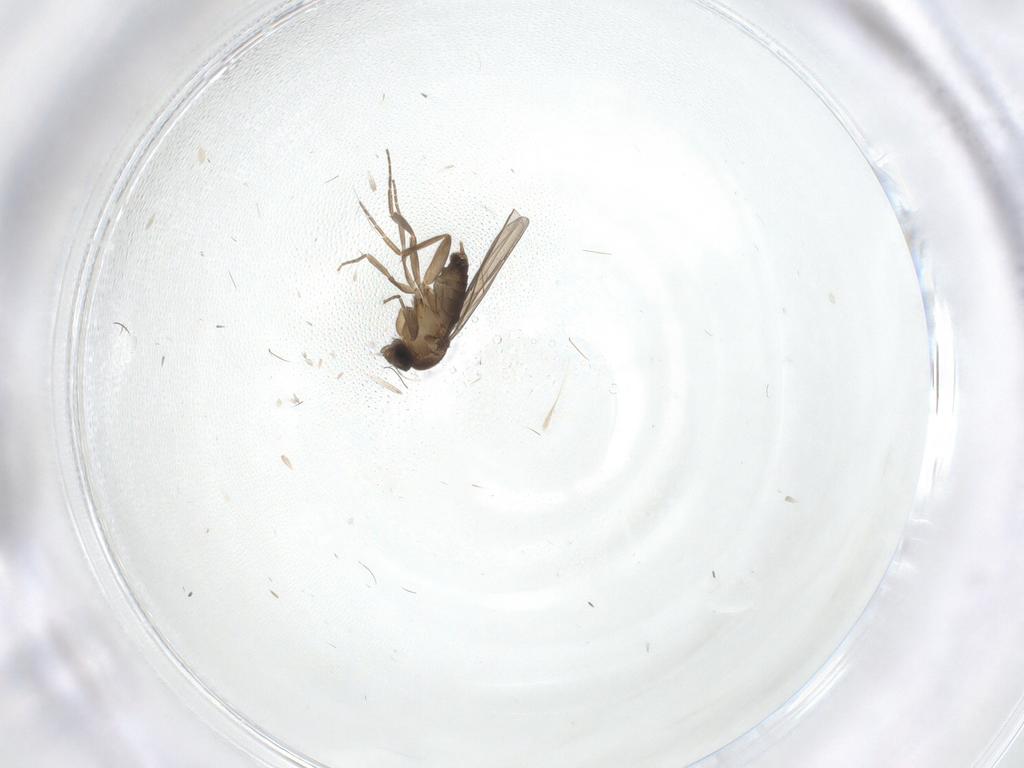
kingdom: Animalia
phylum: Arthropoda
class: Insecta
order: Diptera
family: Phoridae
